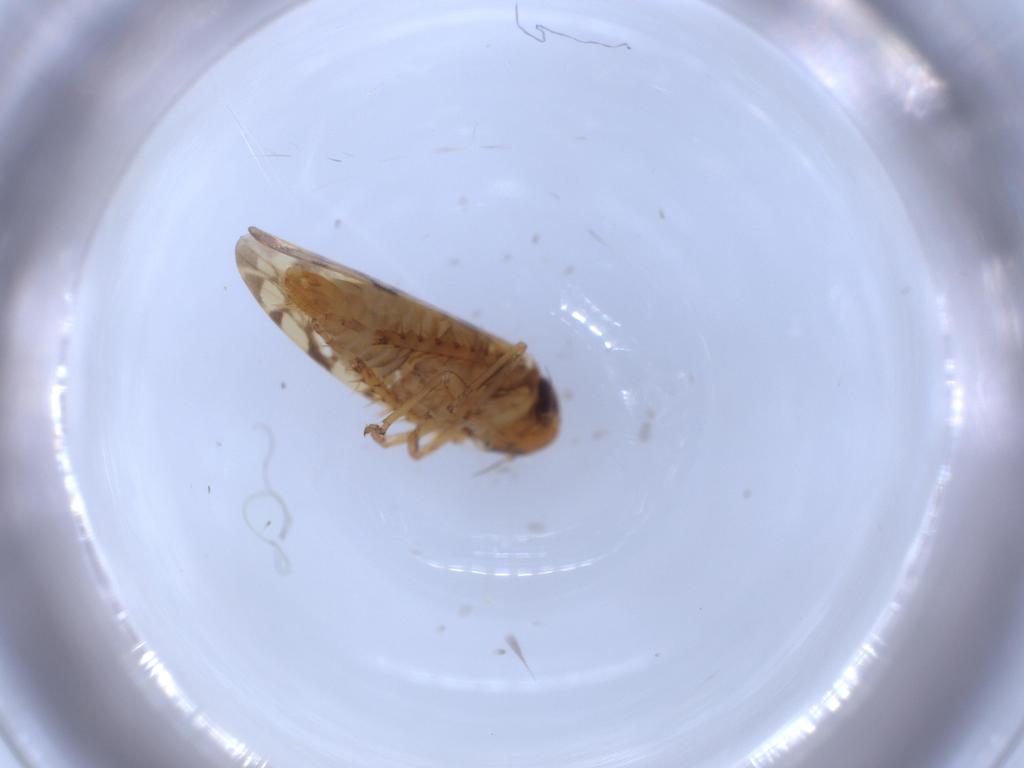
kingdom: Animalia
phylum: Arthropoda
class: Insecta
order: Hemiptera
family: Cicadellidae
